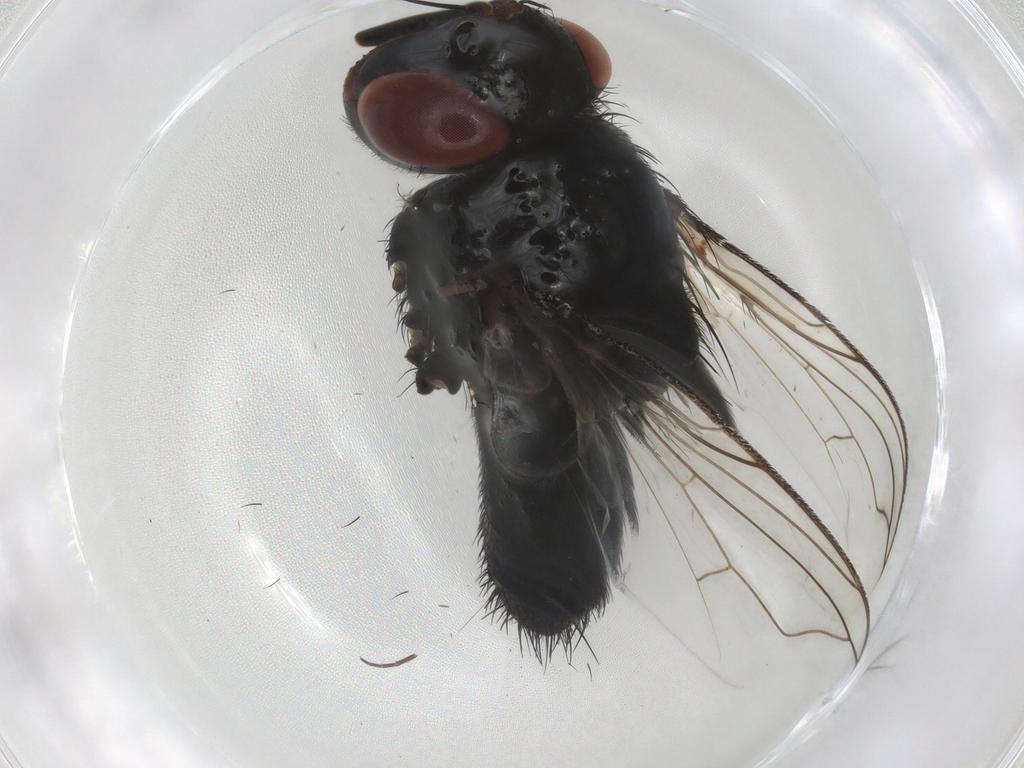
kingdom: Animalia
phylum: Arthropoda
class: Insecta
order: Diptera
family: Tachinidae
